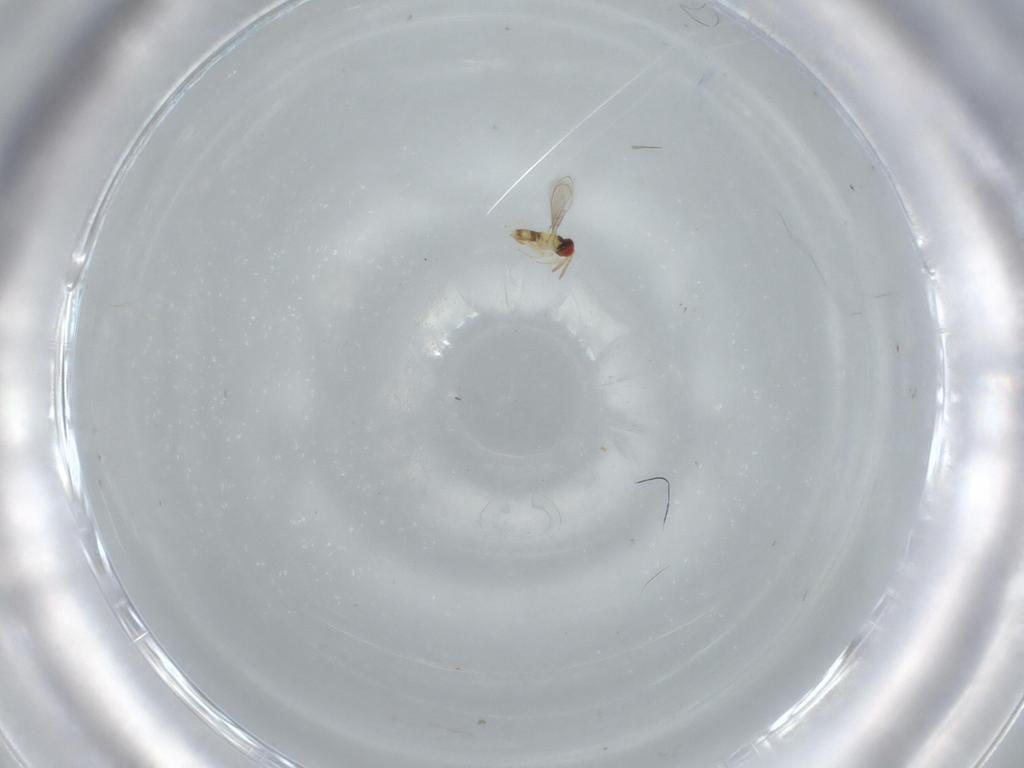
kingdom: Animalia
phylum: Arthropoda
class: Insecta
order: Hymenoptera
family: Aphelinidae
